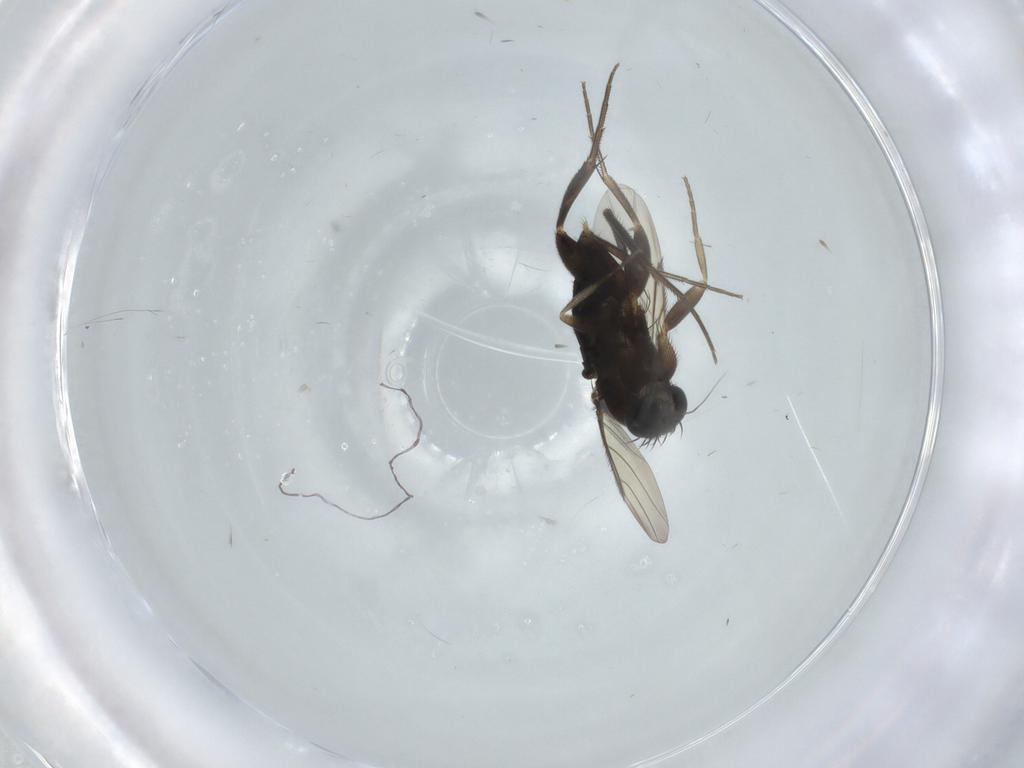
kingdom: Animalia
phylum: Arthropoda
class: Insecta
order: Diptera
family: Phoridae
